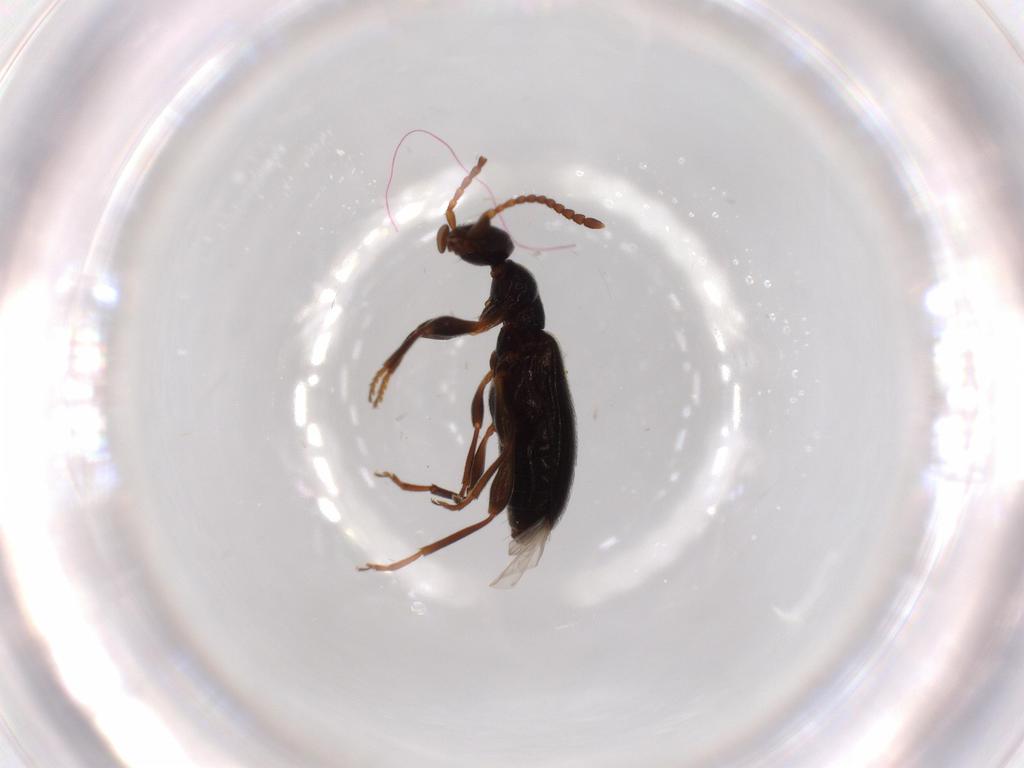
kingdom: Animalia
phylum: Arthropoda
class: Insecta
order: Coleoptera
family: Anthicidae
